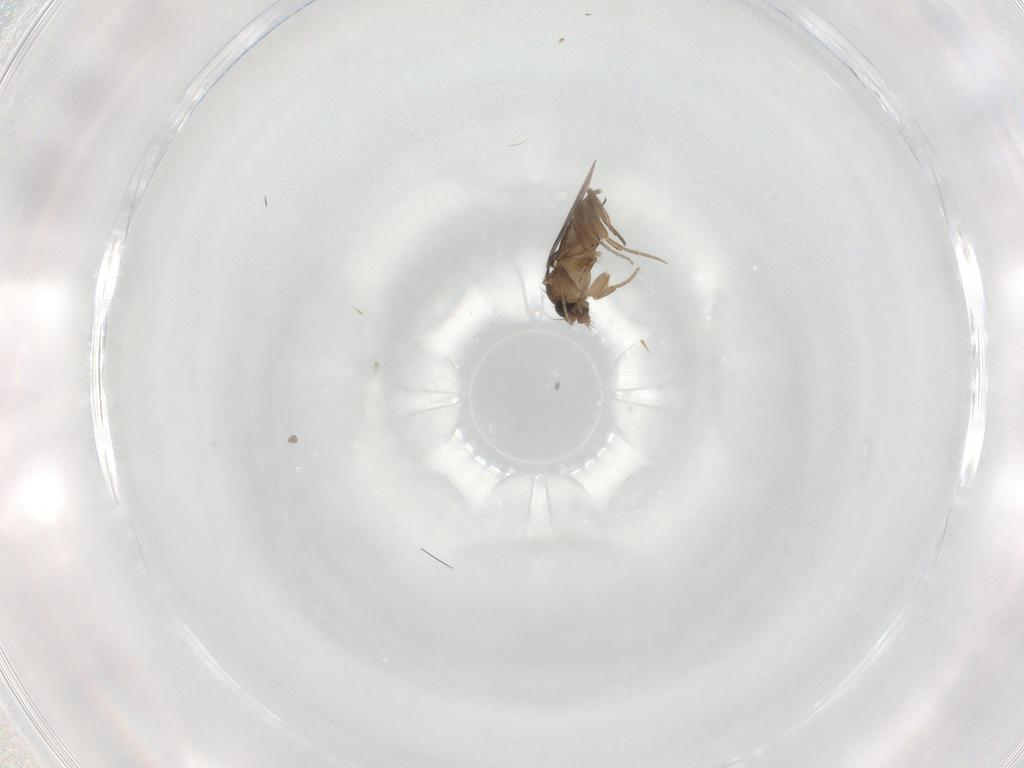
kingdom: Animalia
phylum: Arthropoda
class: Insecta
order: Diptera
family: Cecidomyiidae
